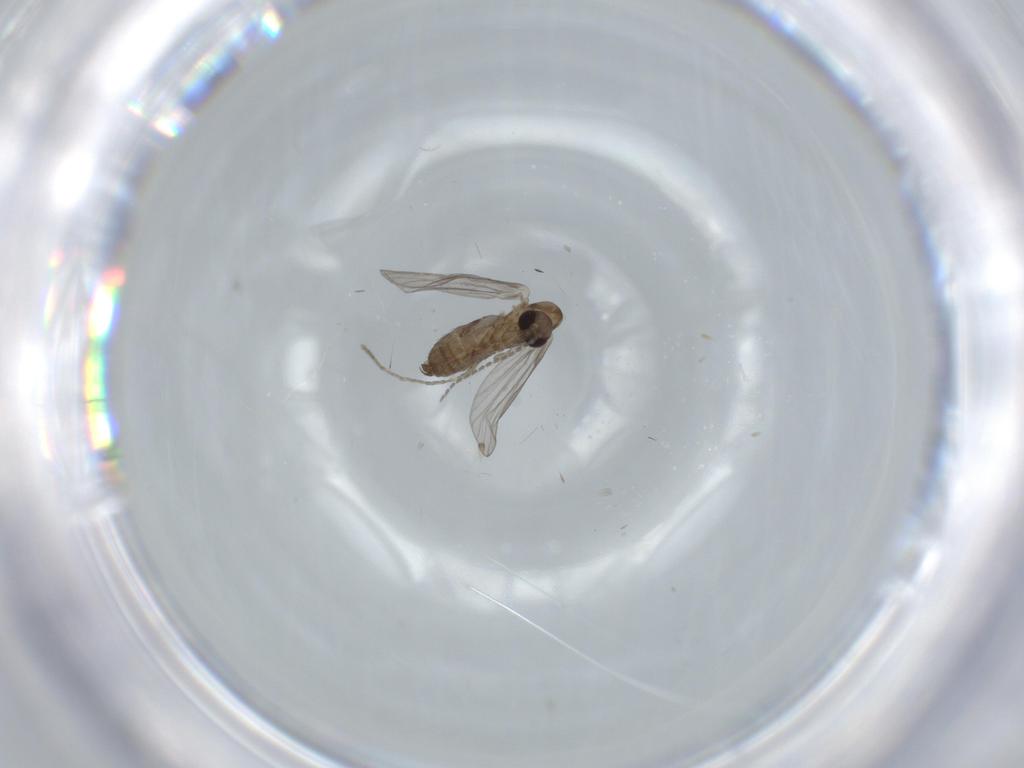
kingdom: Animalia
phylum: Arthropoda
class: Insecta
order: Diptera
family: Psychodidae
